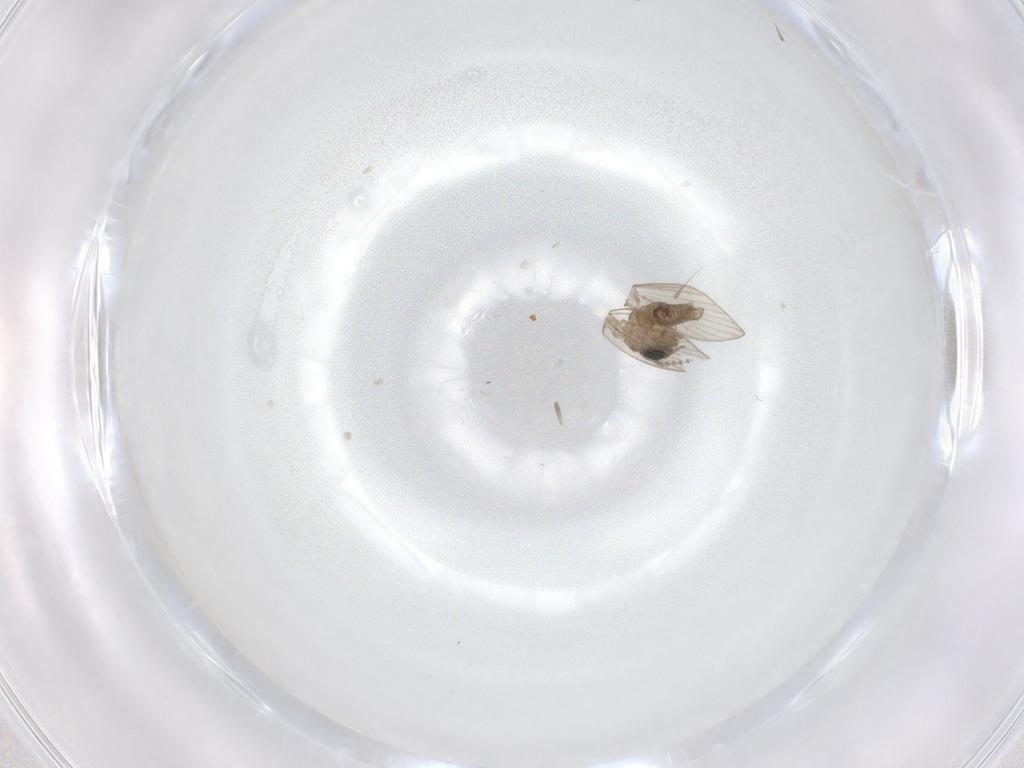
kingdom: Animalia
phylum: Arthropoda
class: Insecta
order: Diptera
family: Psychodidae
